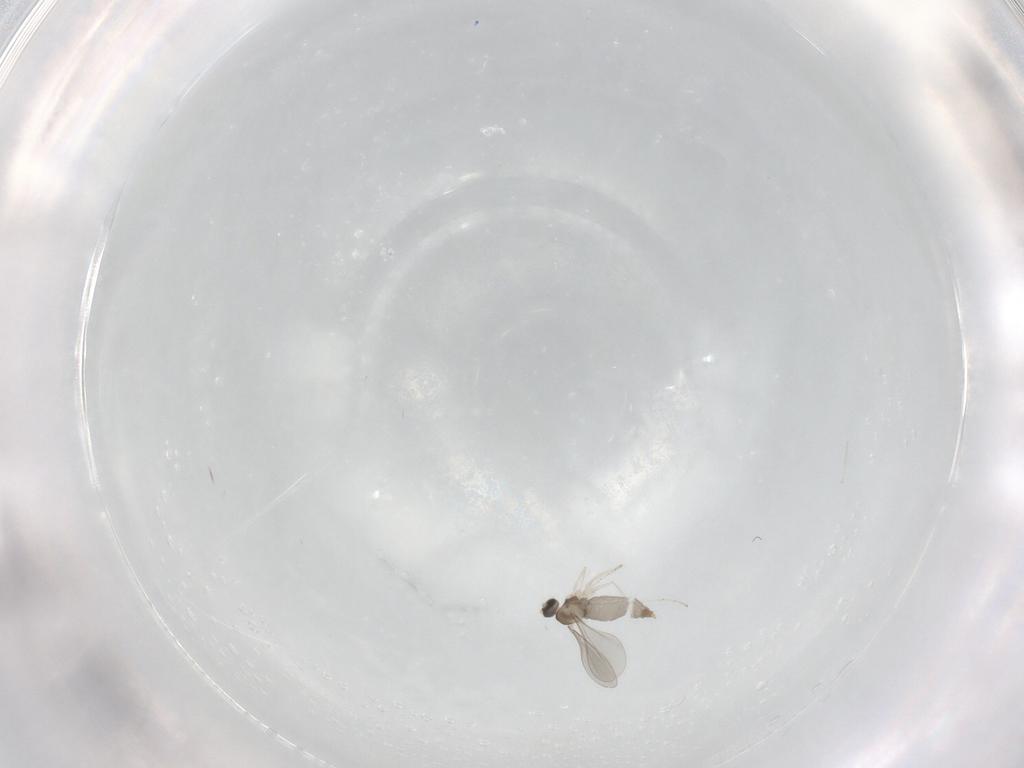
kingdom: Animalia
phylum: Arthropoda
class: Insecta
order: Diptera
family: Cecidomyiidae
